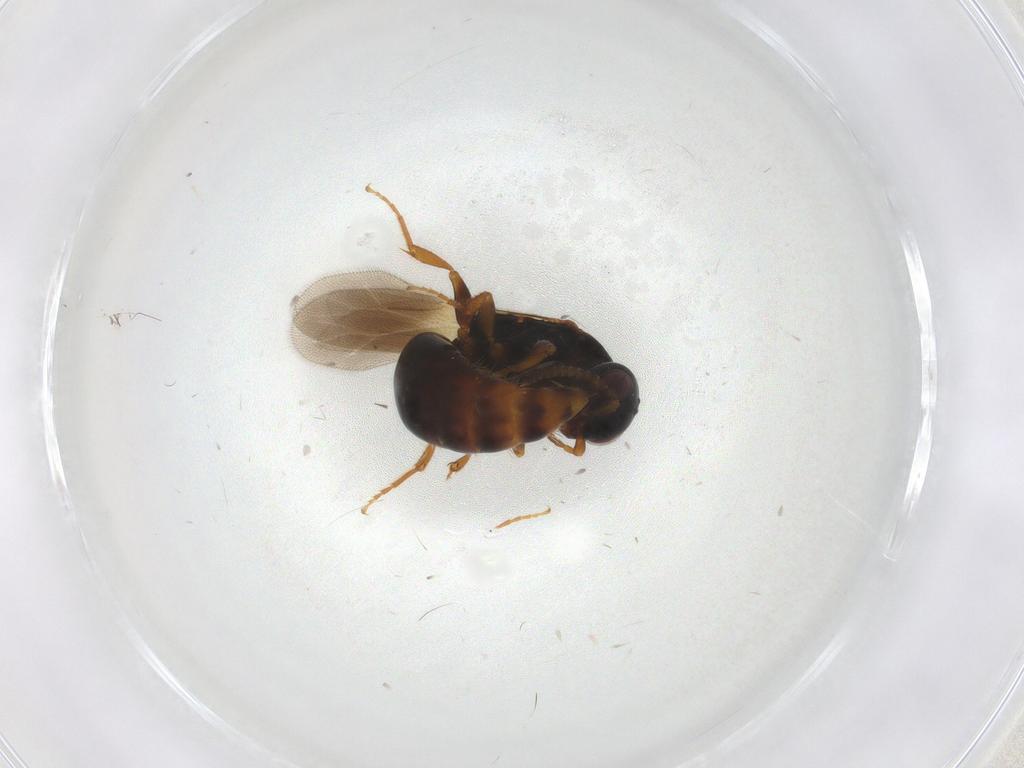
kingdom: Animalia
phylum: Arthropoda
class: Insecta
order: Hymenoptera
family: Bethylidae
